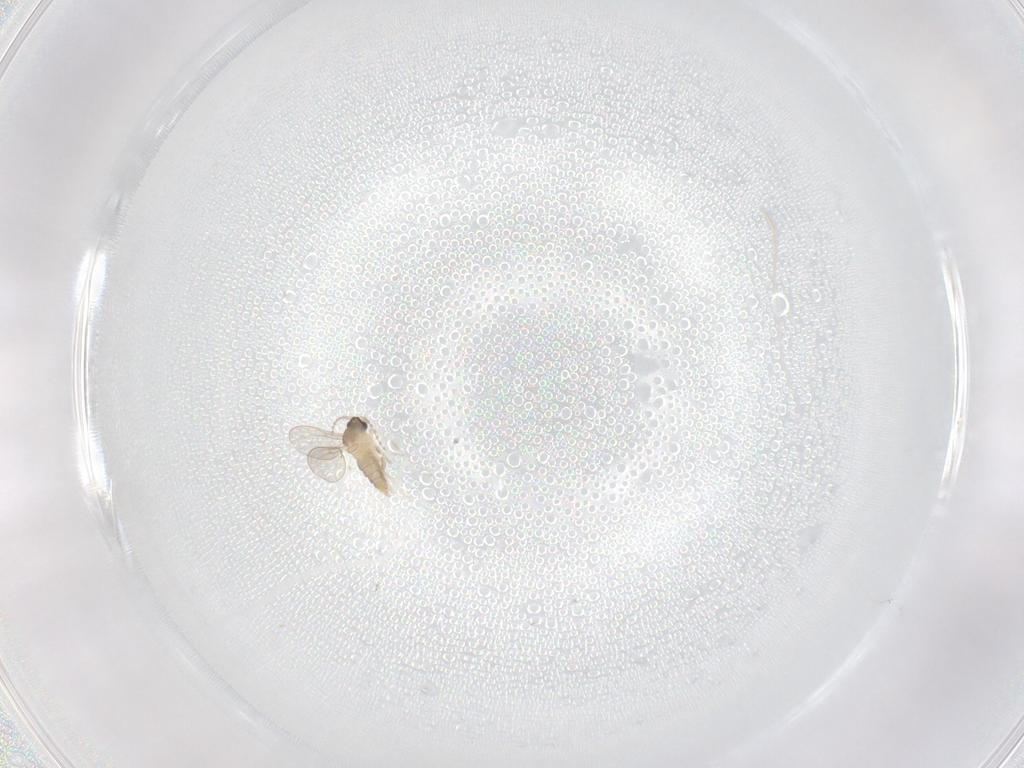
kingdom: Animalia
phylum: Arthropoda
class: Insecta
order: Diptera
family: Cecidomyiidae
